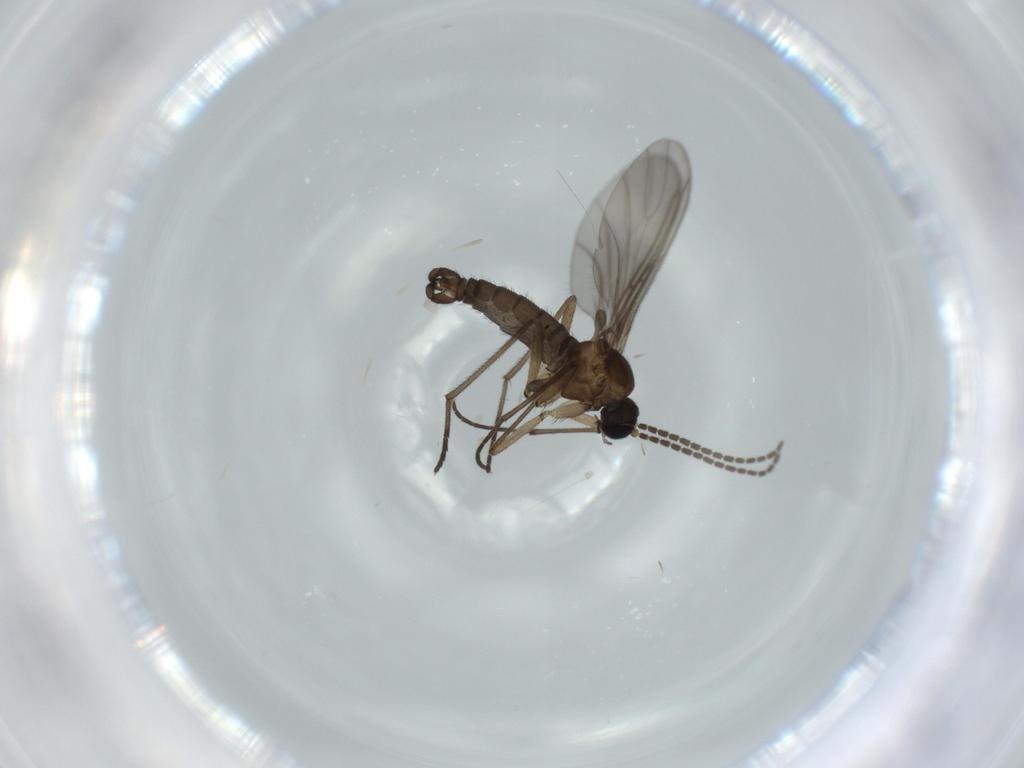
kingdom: Animalia
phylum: Arthropoda
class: Insecta
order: Diptera
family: Sciaridae
